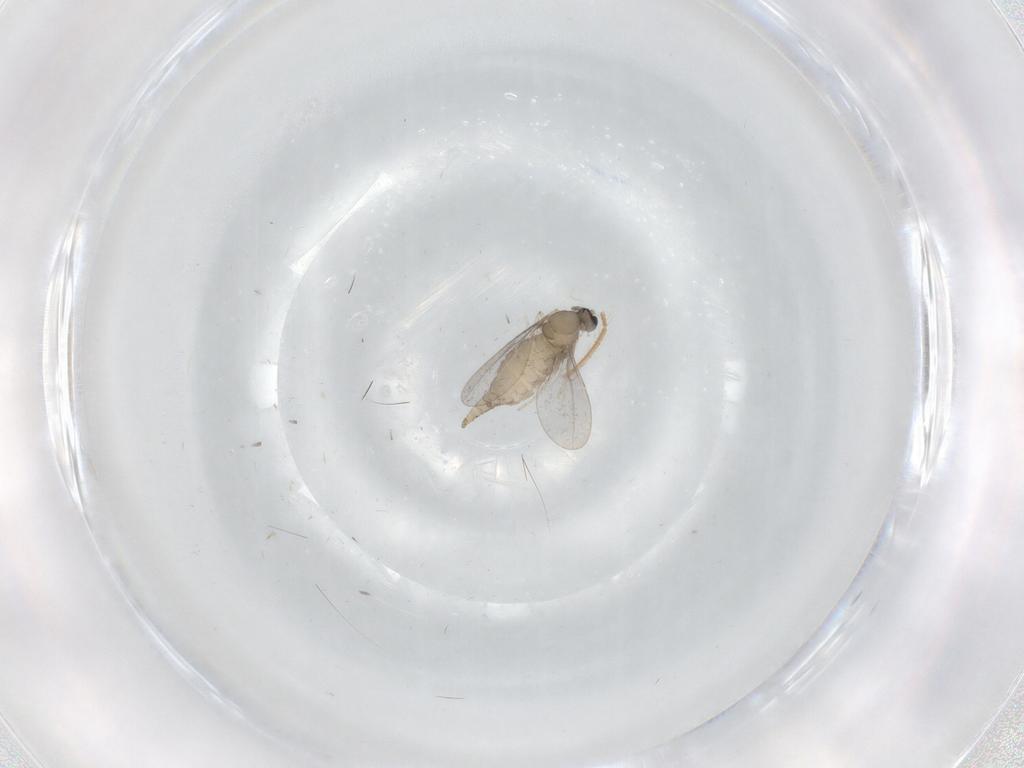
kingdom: Animalia
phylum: Arthropoda
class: Insecta
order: Diptera
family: Cecidomyiidae
